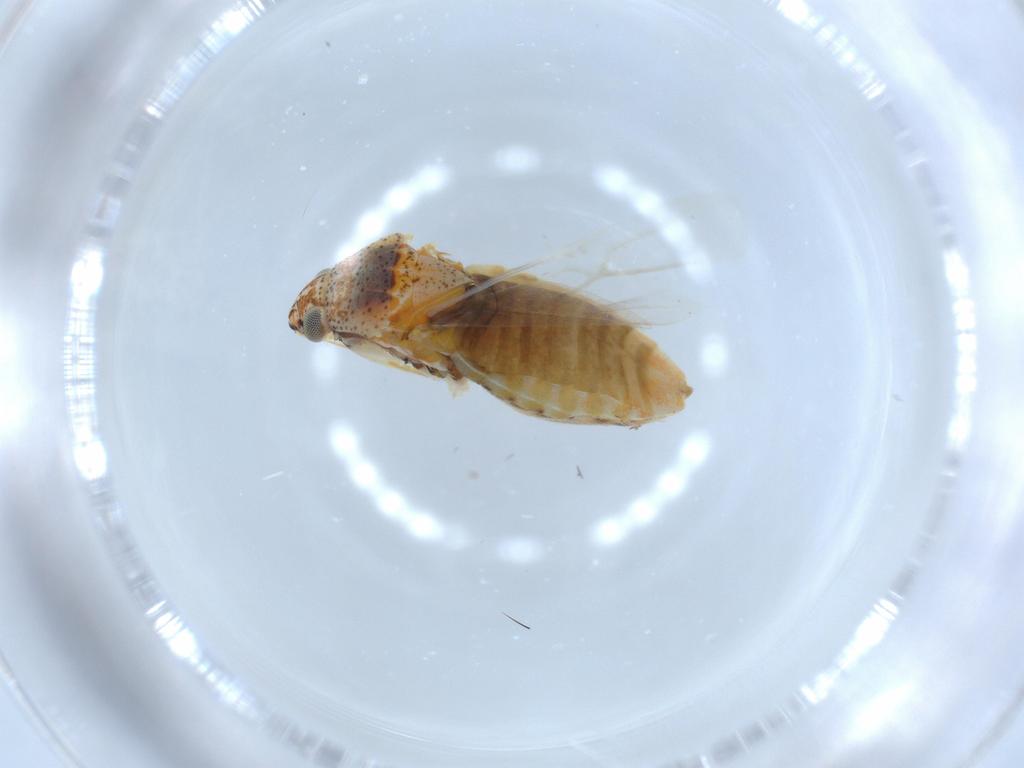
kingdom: Animalia
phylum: Arthropoda
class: Insecta
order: Hemiptera
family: Miridae
